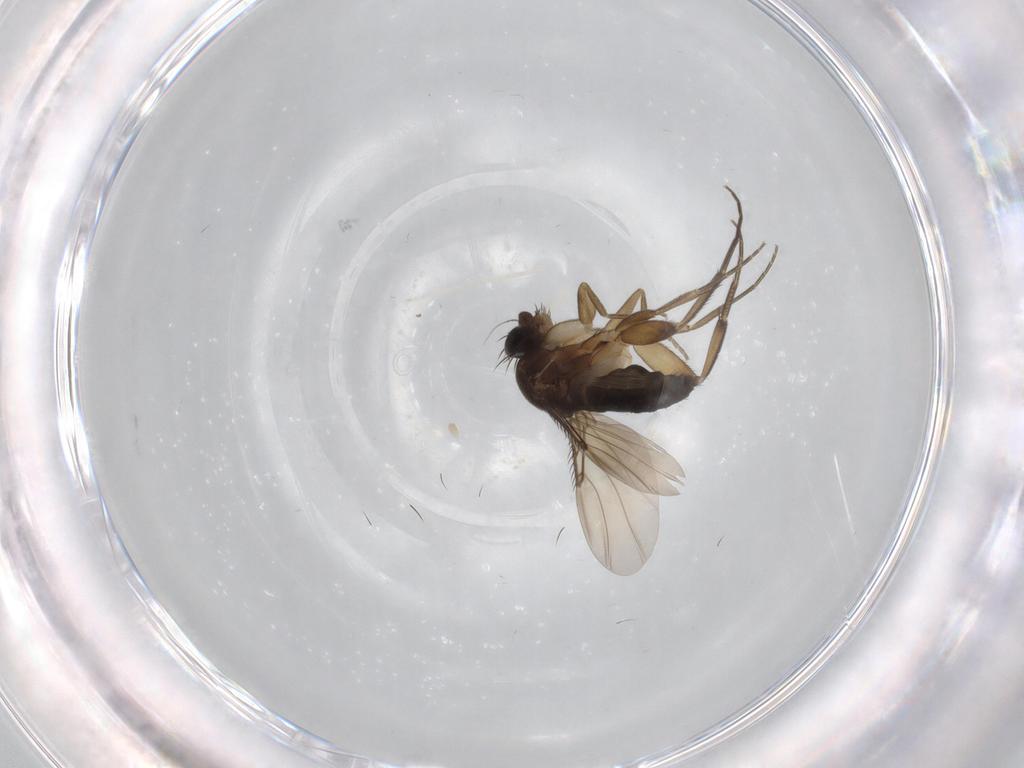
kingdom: Animalia
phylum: Arthropoda
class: Insecta
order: Diptera
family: Asilidae
